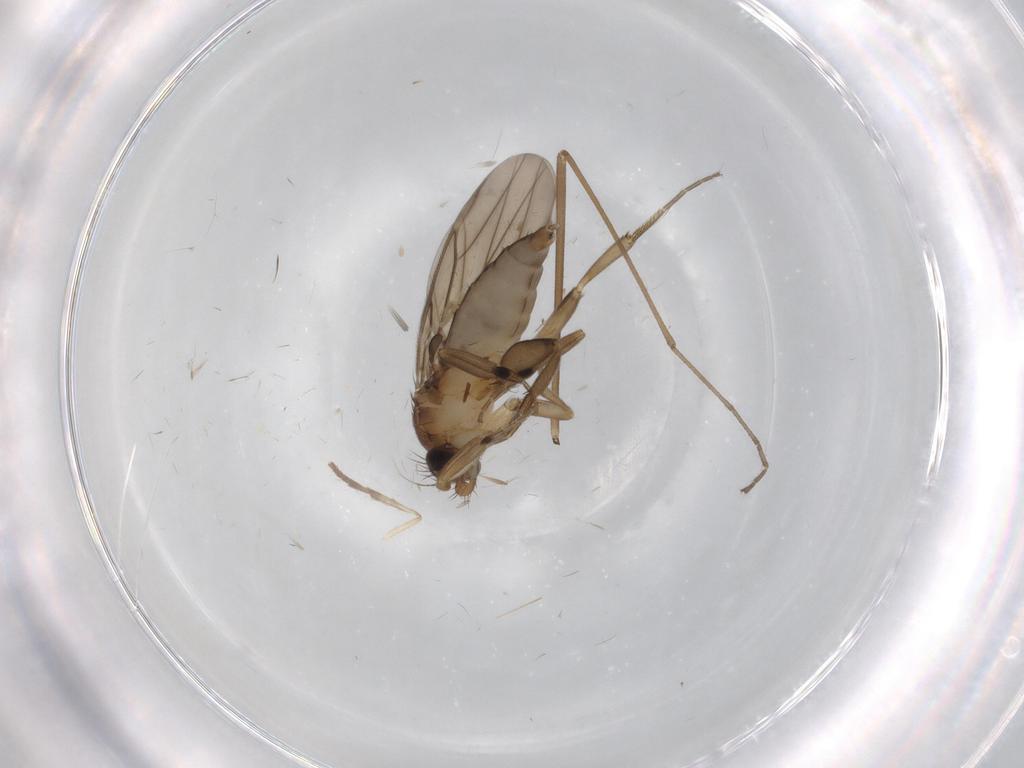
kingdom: Animalia
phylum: Arthropoda
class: Insecta
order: Diptera
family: Limoniidae
